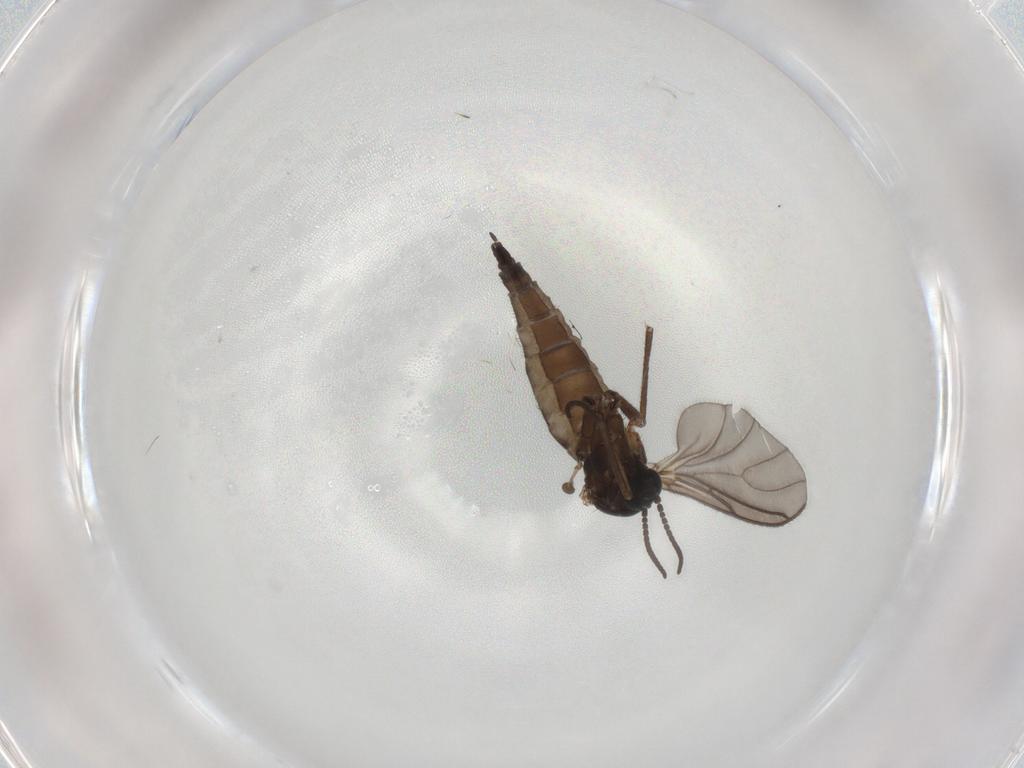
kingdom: Animalia
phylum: Arthropoda
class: Insecta
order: Diptera
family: Sciaridae
